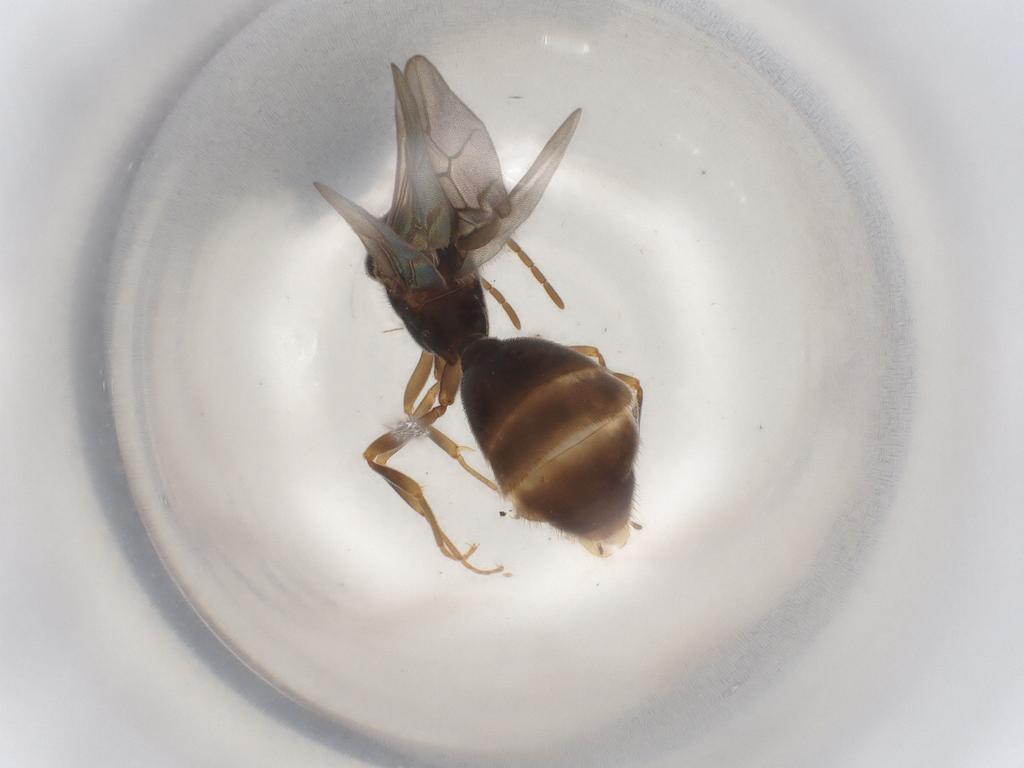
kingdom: Animalia
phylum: Arthropoda
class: Insecta
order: Hymenoptera
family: Formicidae
